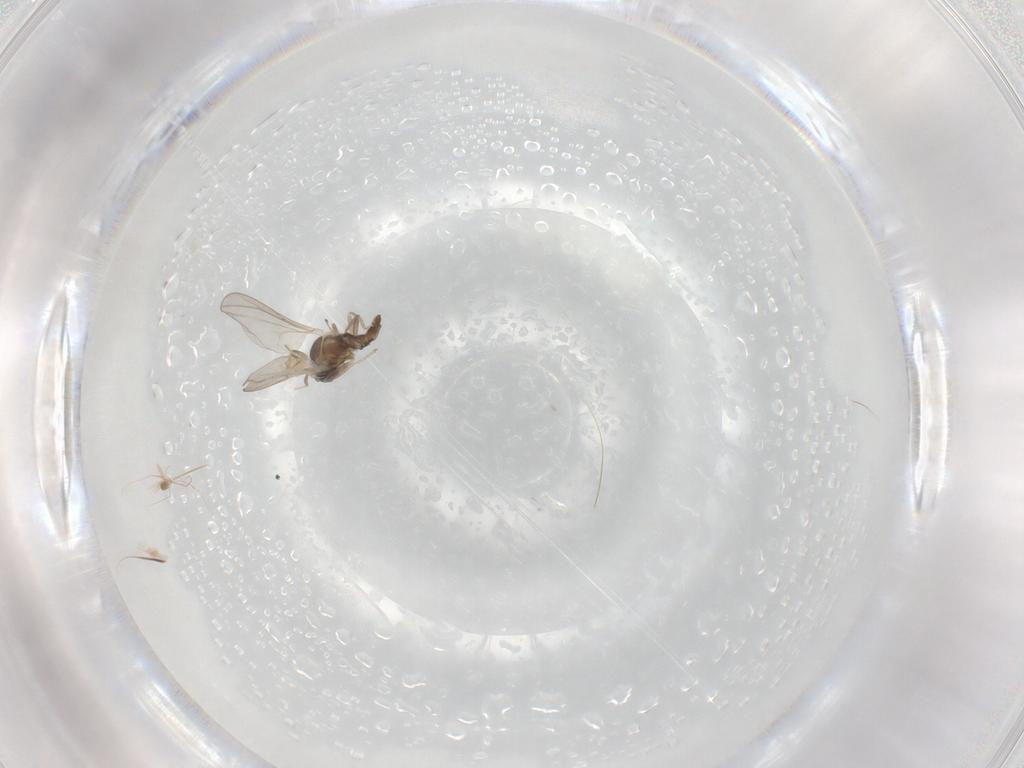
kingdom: Animalia
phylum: Arthropoda
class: Insecta
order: Diptera
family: Cecidomyiidae
